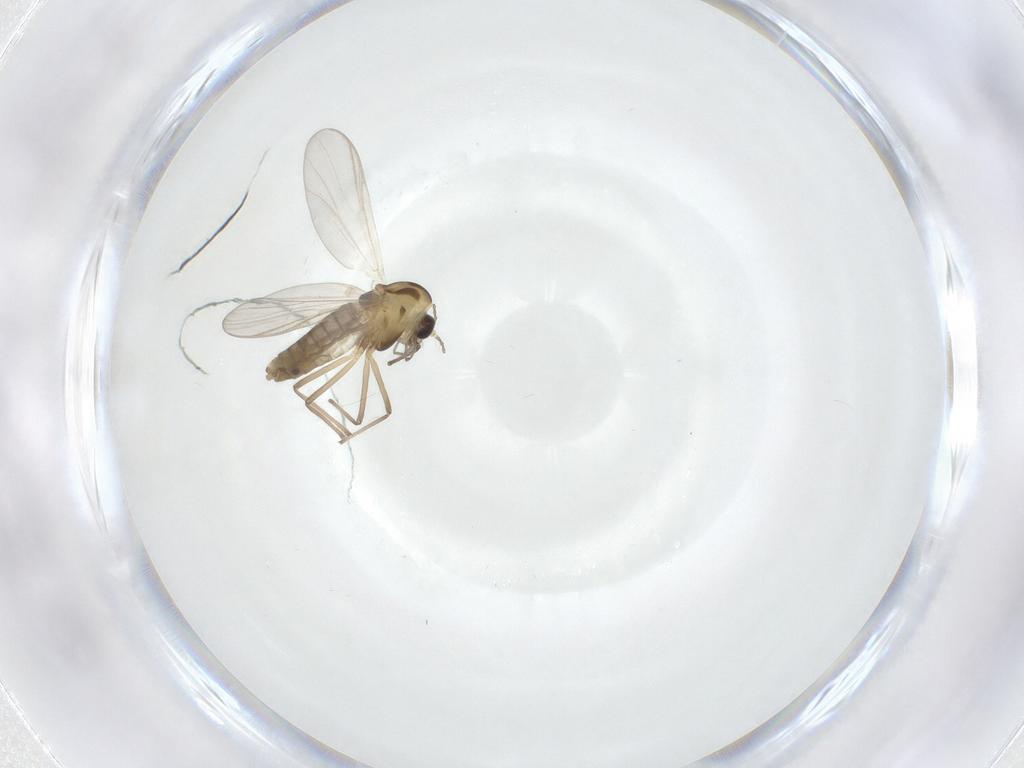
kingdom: Animalia
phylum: Arthropoda
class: Insecta
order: Diptera
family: Chironomidae
